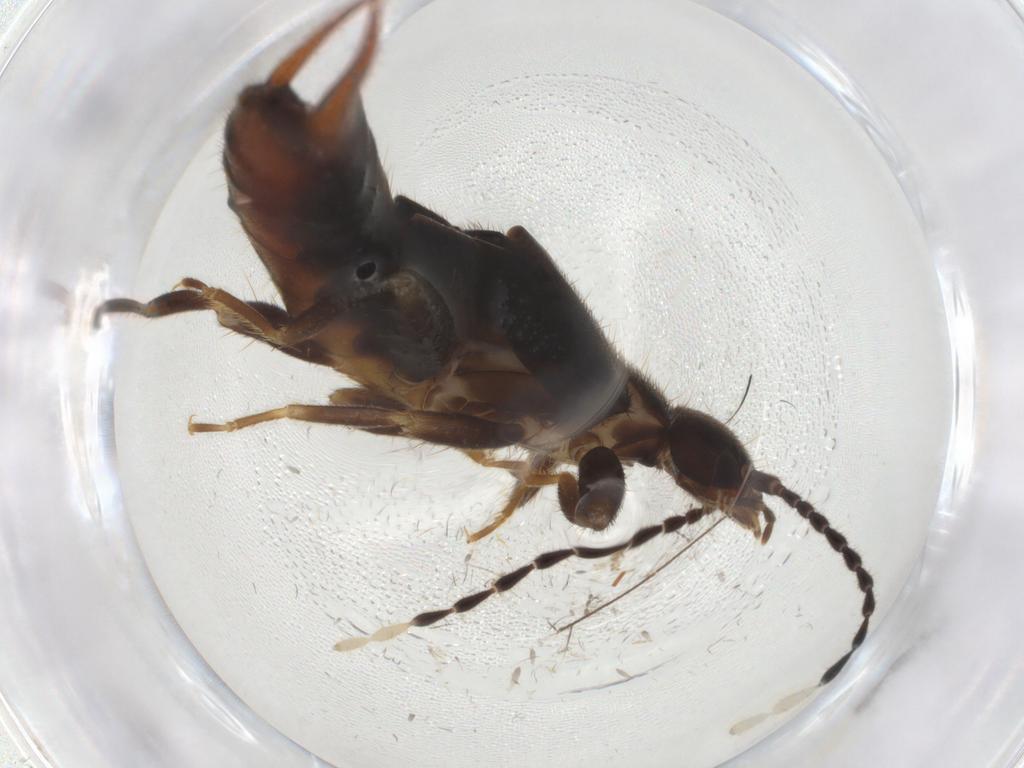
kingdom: Animalia
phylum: Arthropoda
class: Insecta
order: Dermaptera
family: Forficulidae
